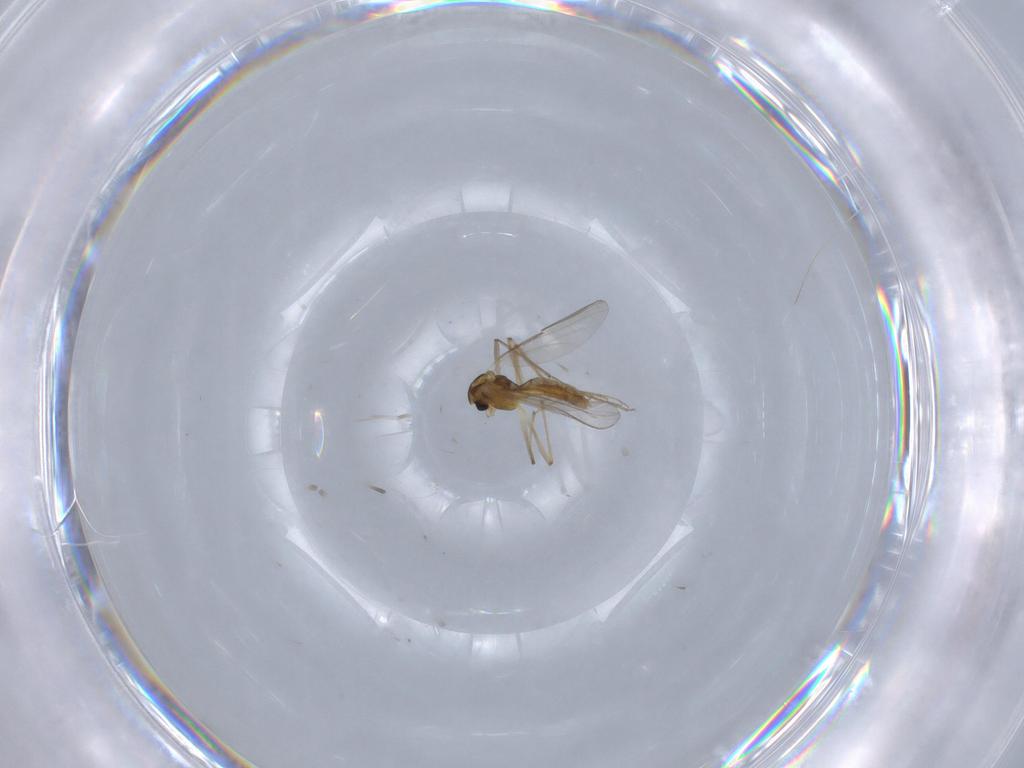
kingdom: Animalia
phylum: Arthropoda
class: Insecta
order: Diptera
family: Chironomidae
